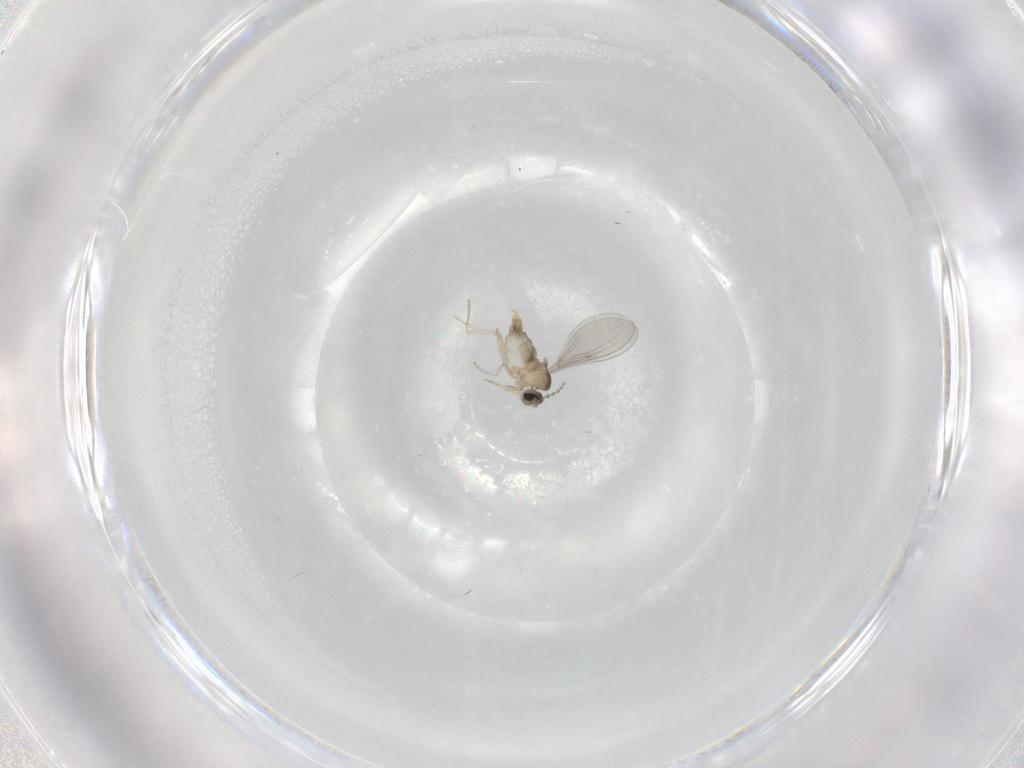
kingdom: Animalia
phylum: Arthropoda
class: Insecta
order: Diptera
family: Cecidomyiidae
